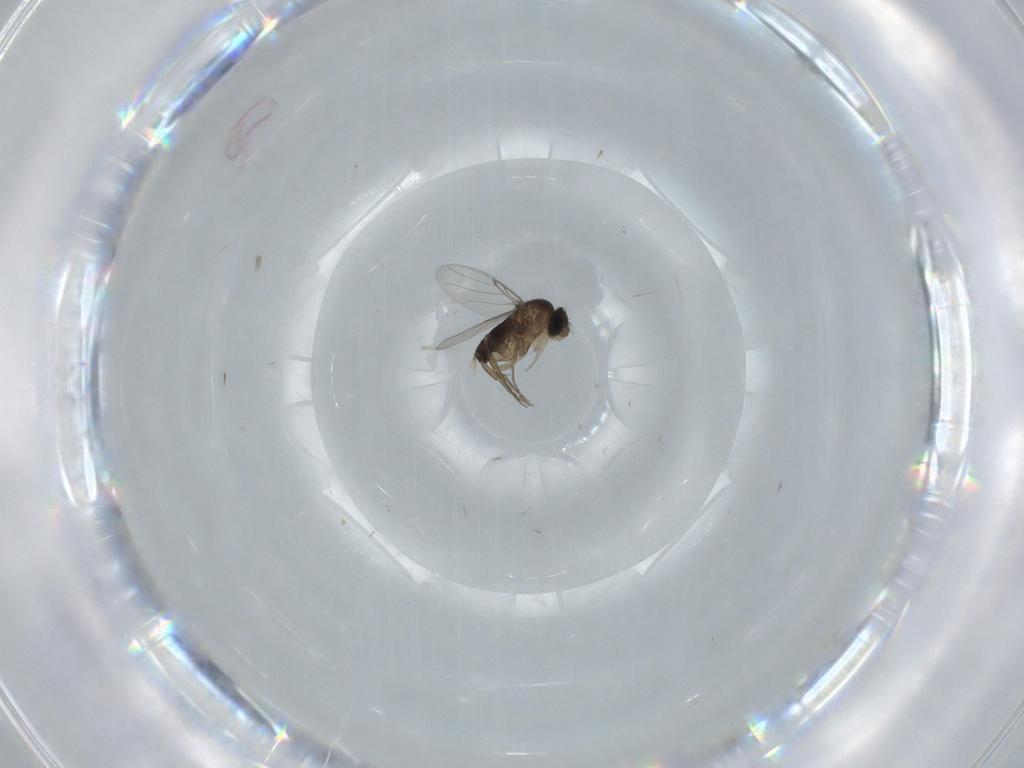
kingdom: Animalia
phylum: Arthropoda
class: Insecta
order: Diptera
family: Phoridae
